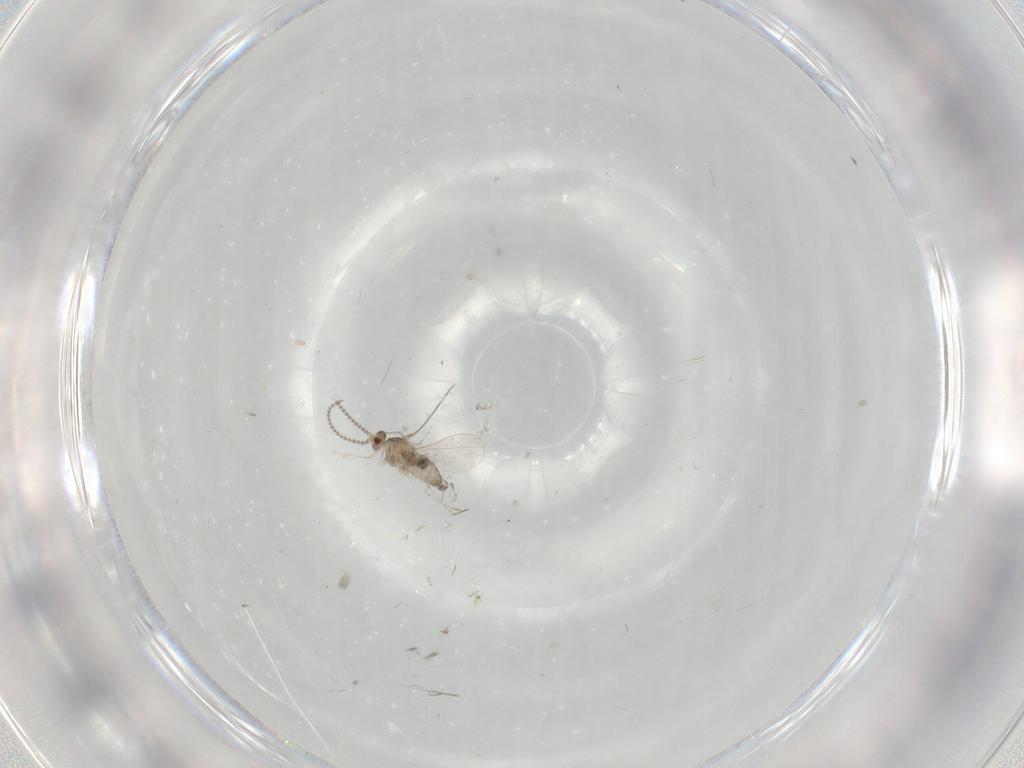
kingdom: Animalia
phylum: Arthropoda
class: Insecta
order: Diptera
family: Cecidomyiidae
